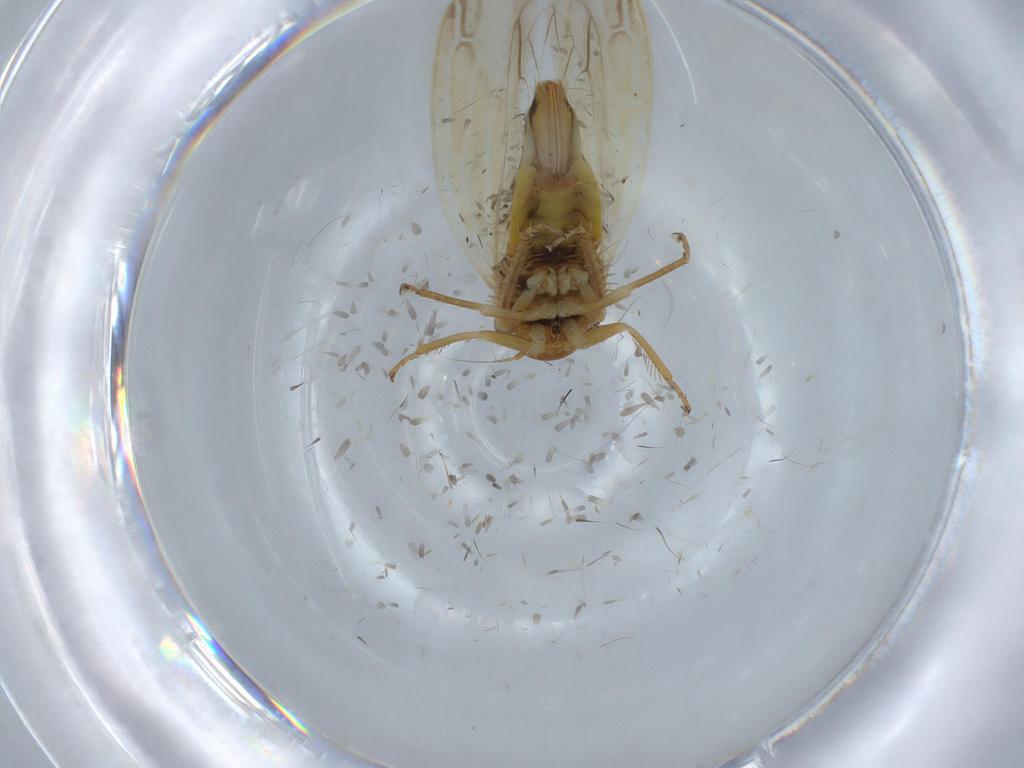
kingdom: Animalia
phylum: Arthropoda
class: Insecta
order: Hemiptera
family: Cicadellidae
